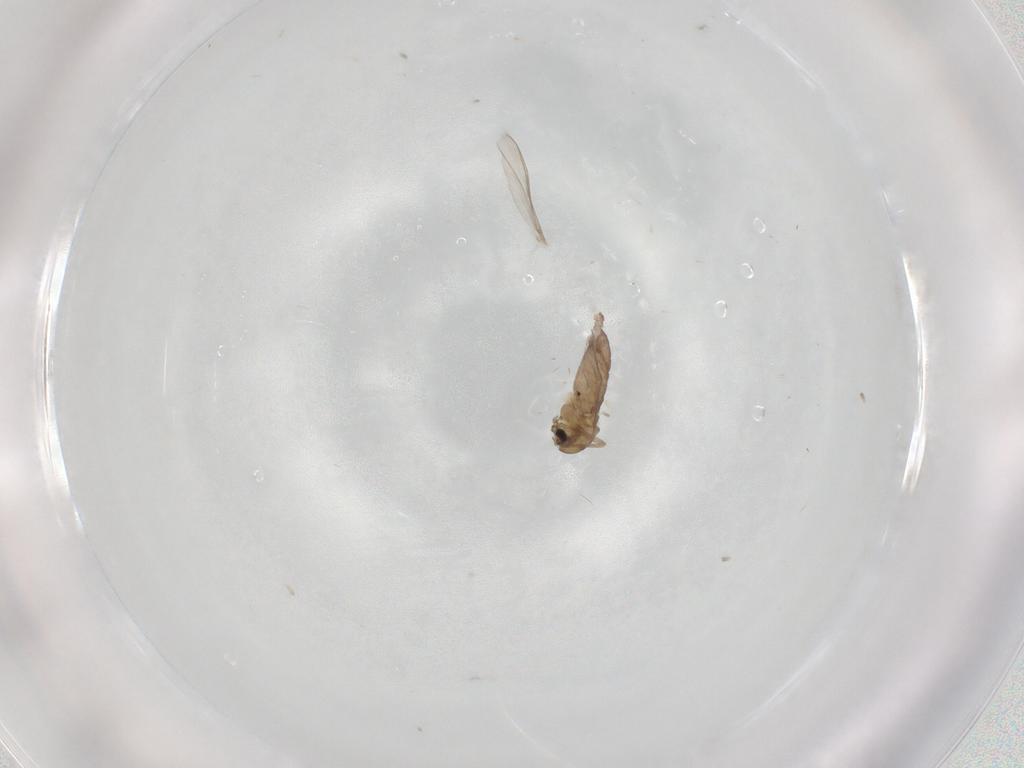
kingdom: Animalia
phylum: Arthropoda
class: Insecta
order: Diptera
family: Chironomidae
